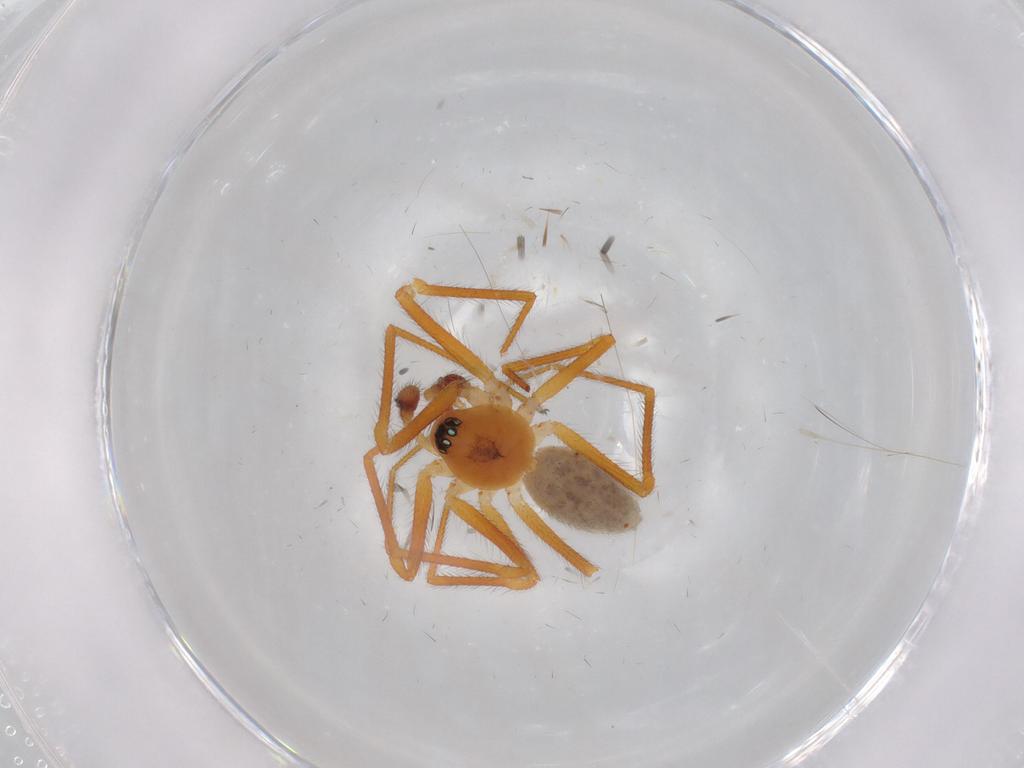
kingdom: Animalia
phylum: Arthropoda
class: Arachnida
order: Araneae
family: Linyphiidae
